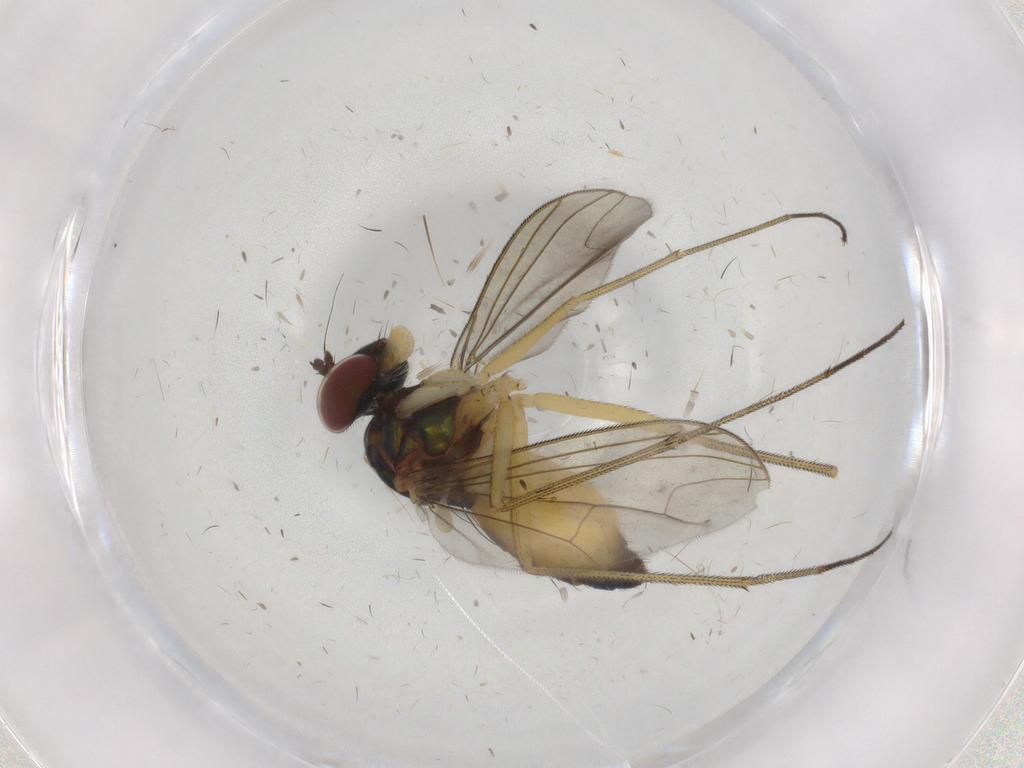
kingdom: Animalia
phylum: Arthropoda
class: Insecta
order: Diptera
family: Dolichopodidae
